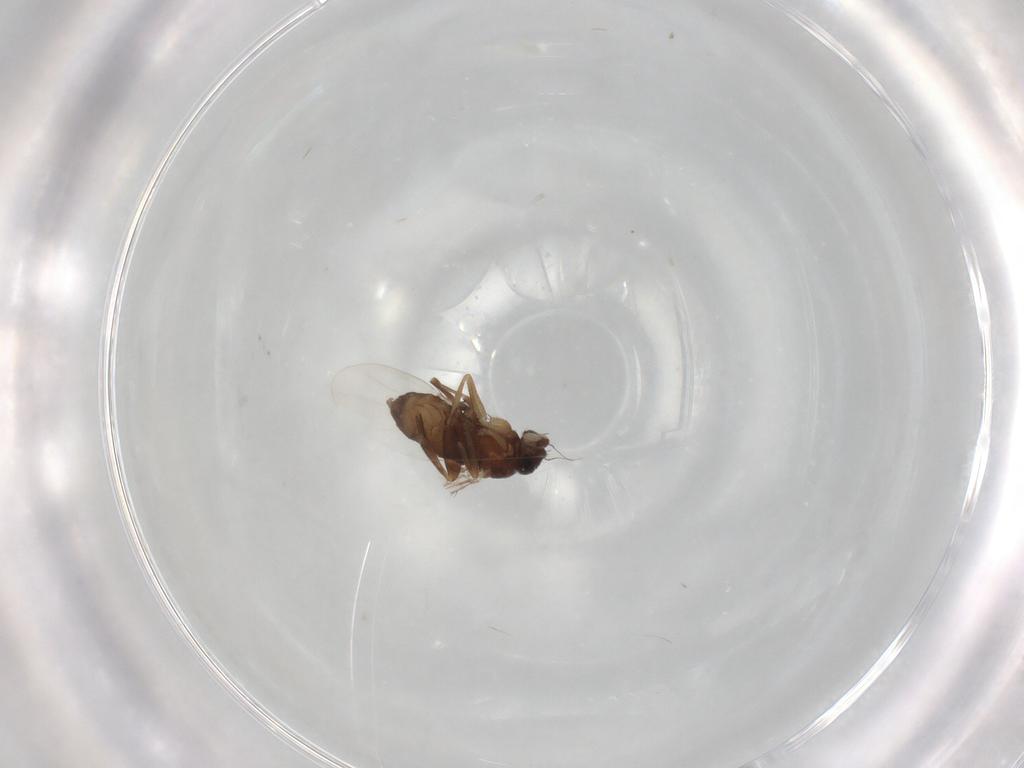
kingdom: Animalia
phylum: Arthropoda
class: Insecta
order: Diptera
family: Phoridae
